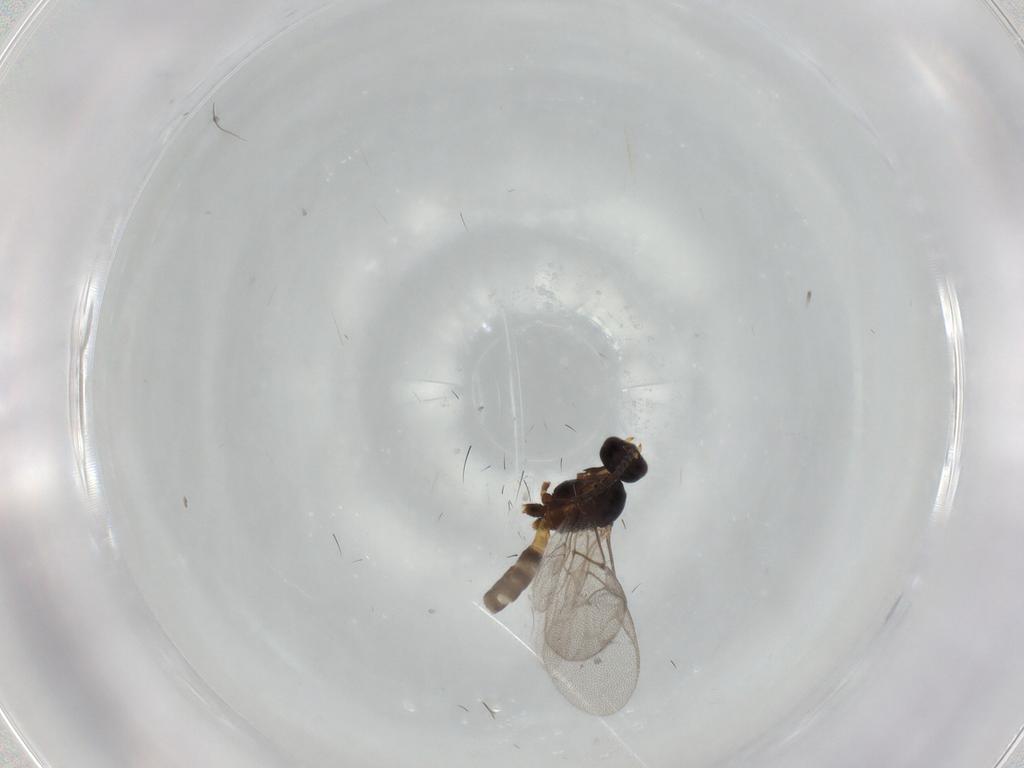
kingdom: Animalia
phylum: Arthropoda
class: Insecta
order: Hymenoptera
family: Braconidae
